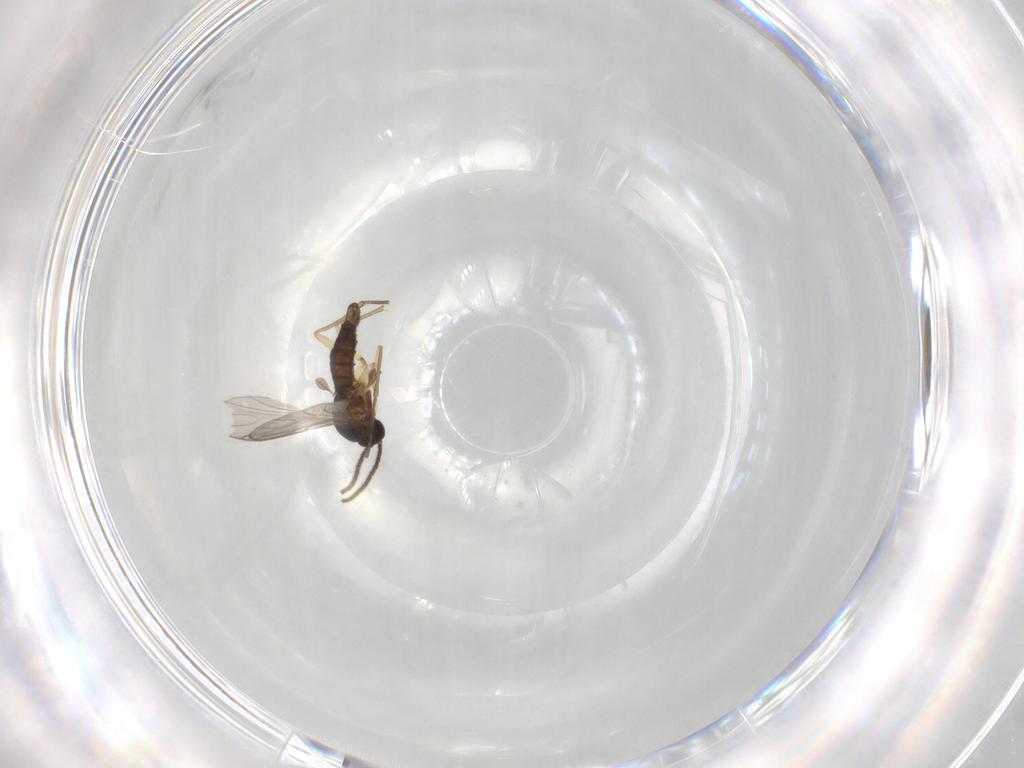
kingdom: Animalia
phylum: Arthropoda
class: Insecta
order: Diptera
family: Sciaridae
